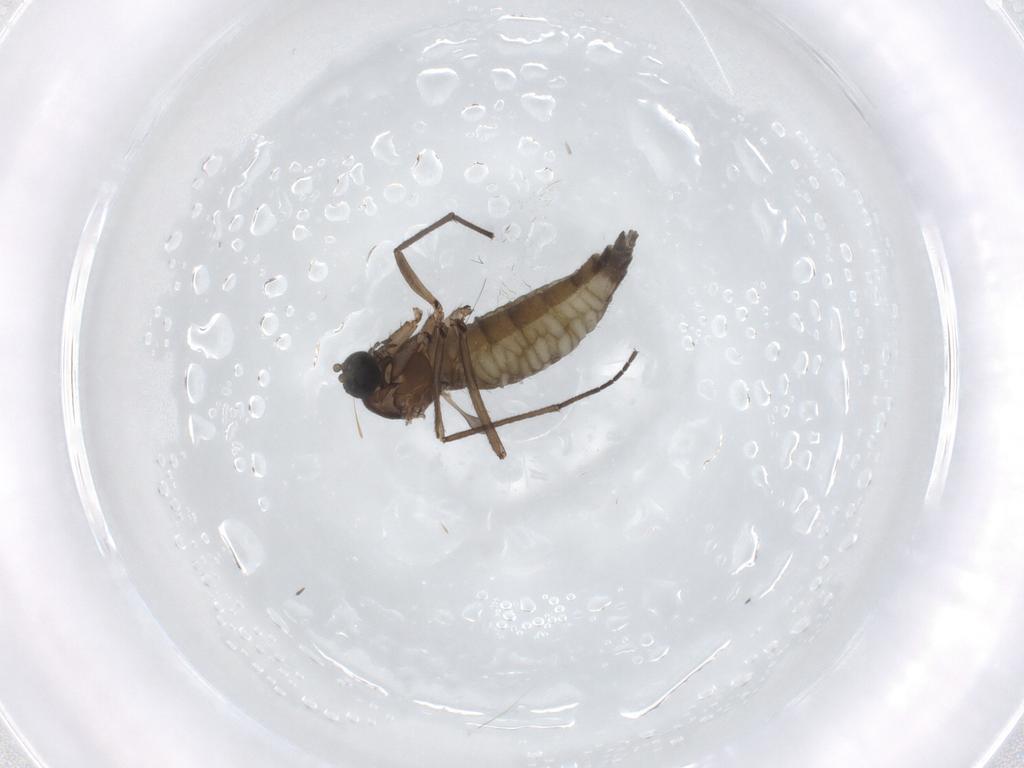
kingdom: Animalia
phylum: Arthropoda
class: Insecta
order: Diptera
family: Sciaridae
